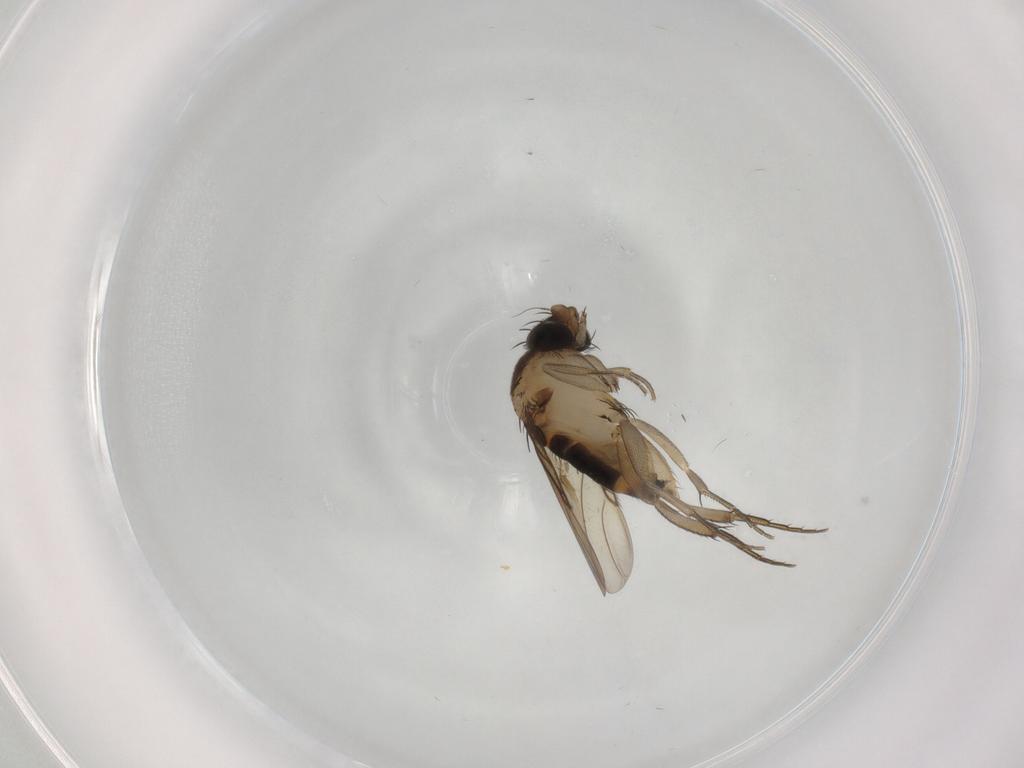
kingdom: Animalia
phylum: Arthropoda
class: Insecta
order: Diptera
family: Phoridae
